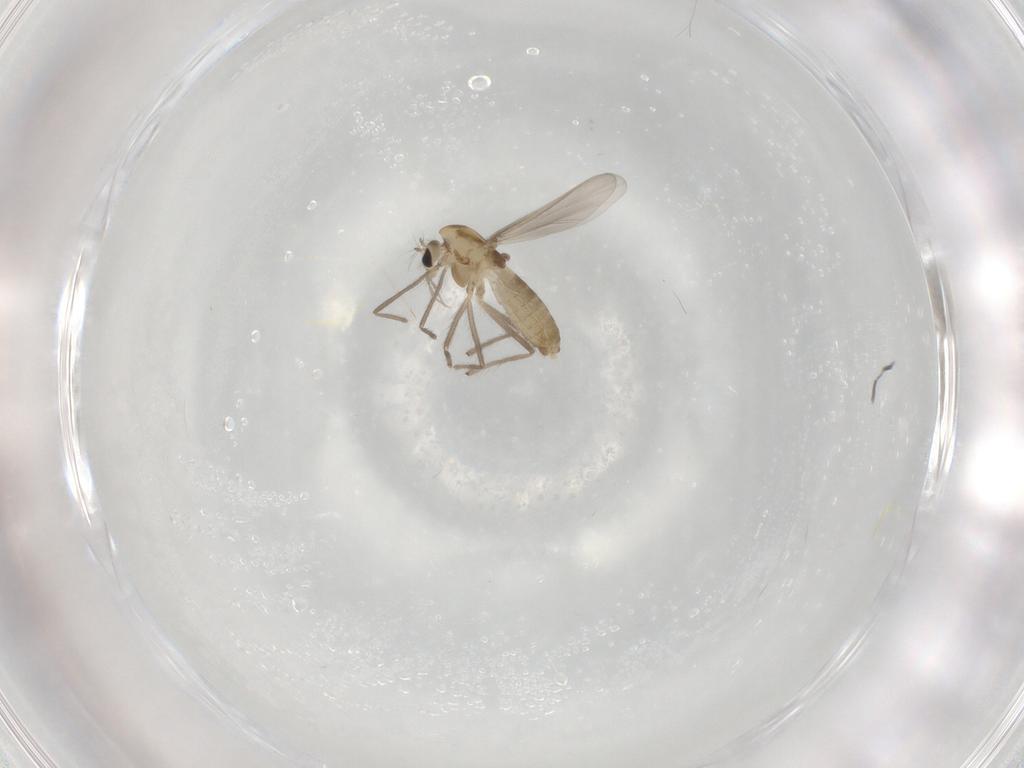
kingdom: Animalia
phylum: Arthropoda
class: Insecta
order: Diptera
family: Chironomidae
